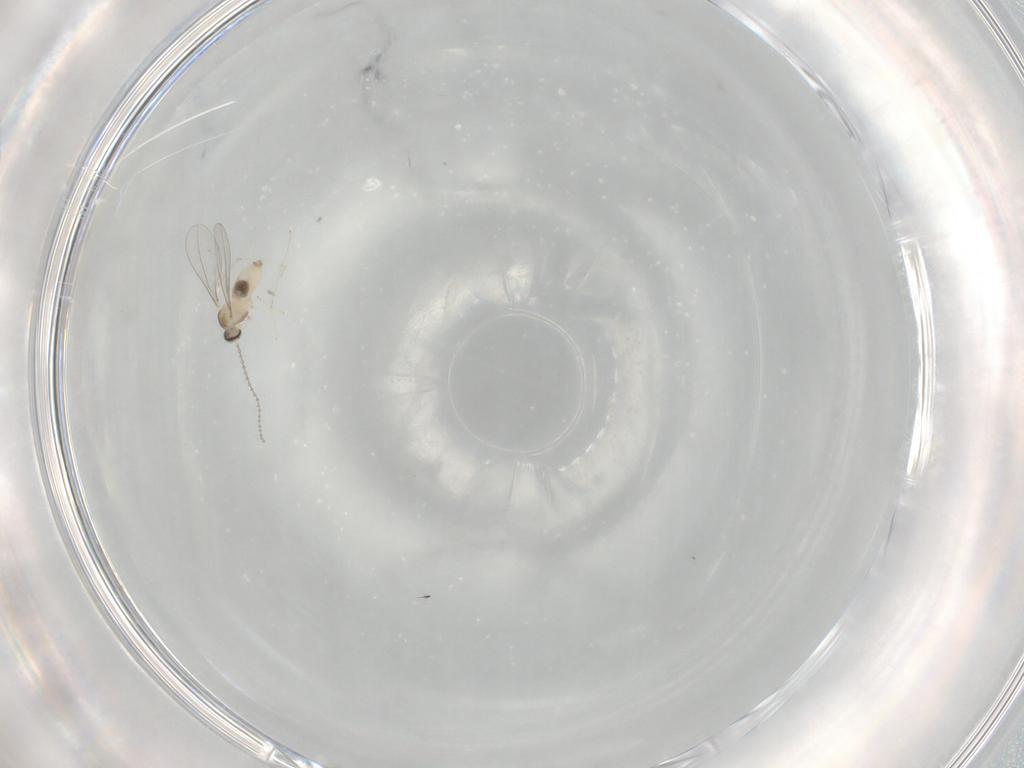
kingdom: Animalia
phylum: Arthropoda
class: Insecta
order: Diptera
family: Cecidomyiidae
